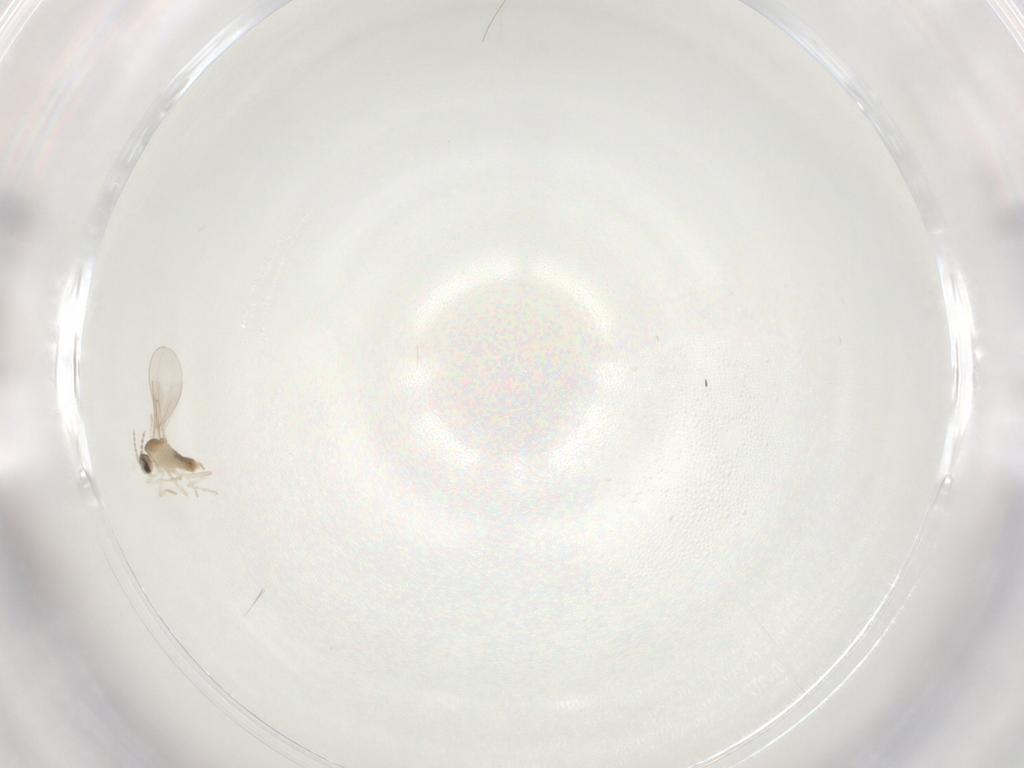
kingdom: Animalia
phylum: Arthropoda
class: Insecta
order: Diptera
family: Cecidomyiidae
